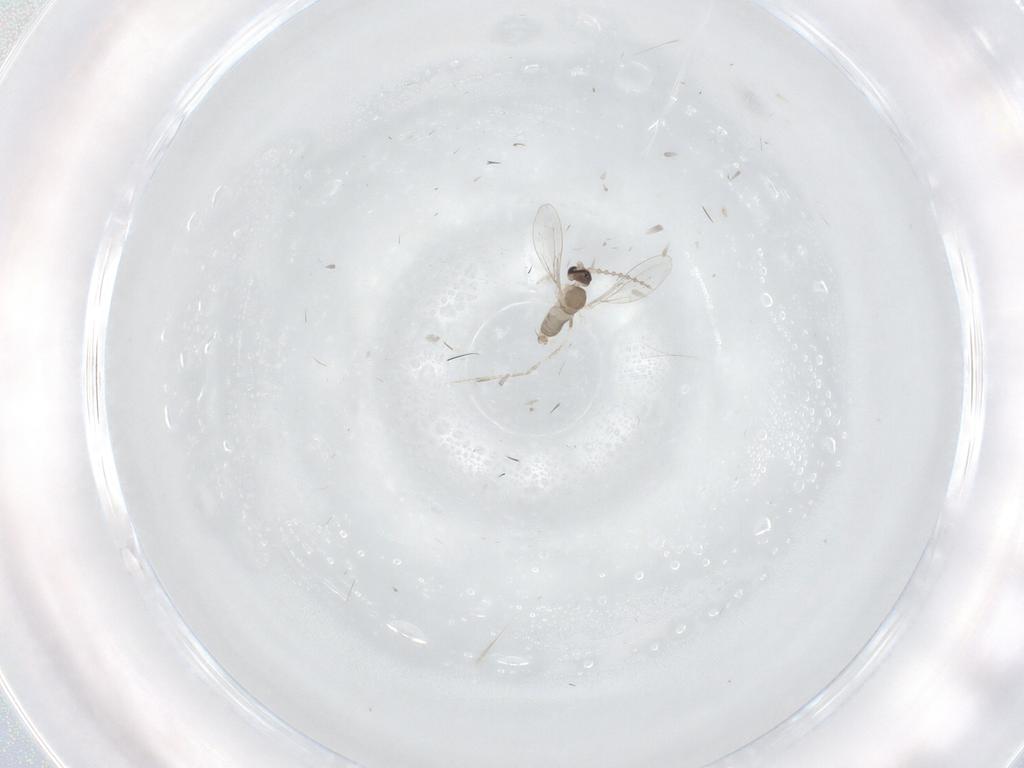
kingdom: Animalia
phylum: Arthropoda
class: Insecta
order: Diptera
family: Cecidomyiidae
